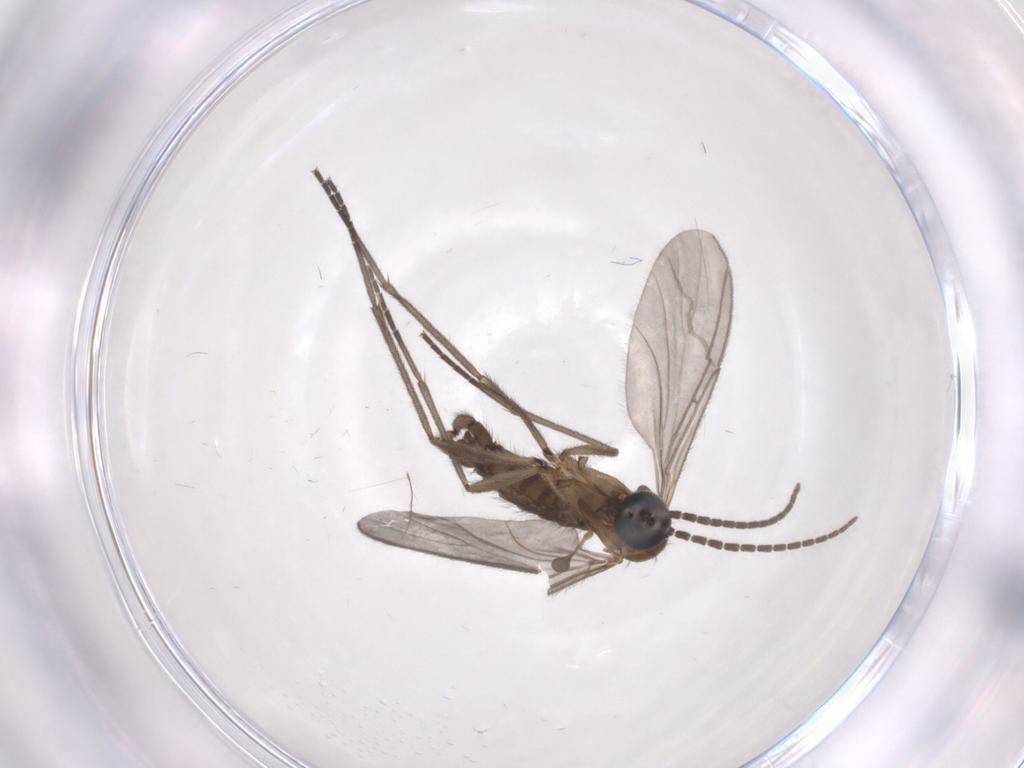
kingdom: Animalia
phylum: Arthropoda
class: Insecta
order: Diptera
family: Sciaridae
